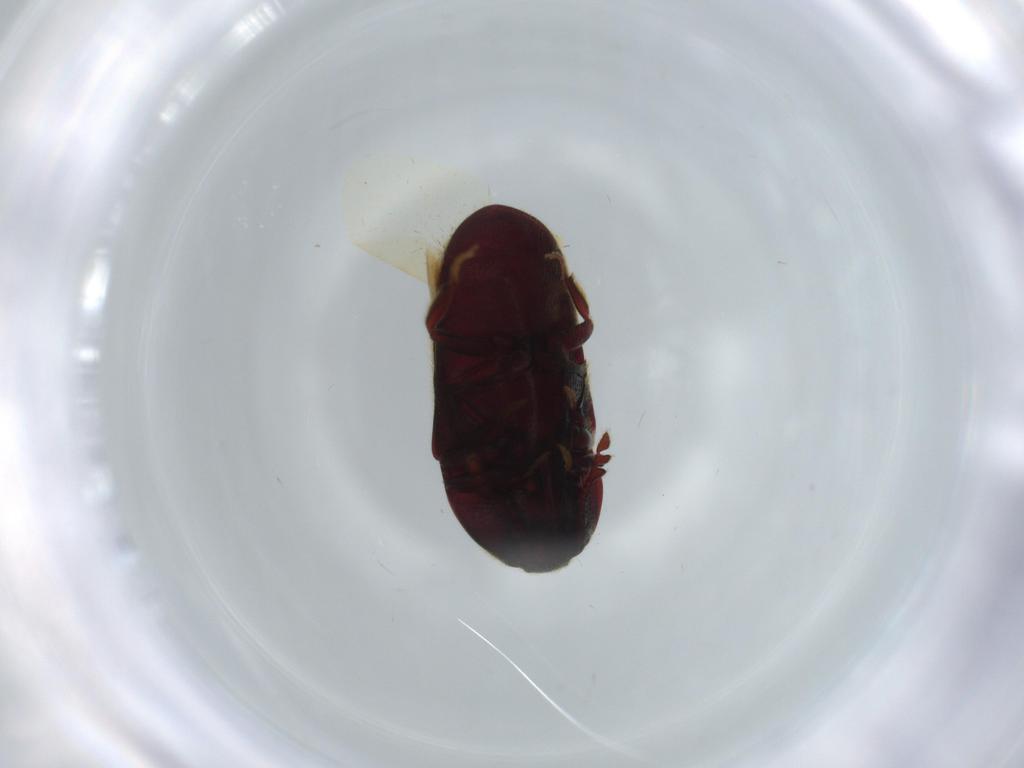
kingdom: Animalia
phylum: Arthropoda
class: Insecta
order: Coleoptera
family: Throscidae
